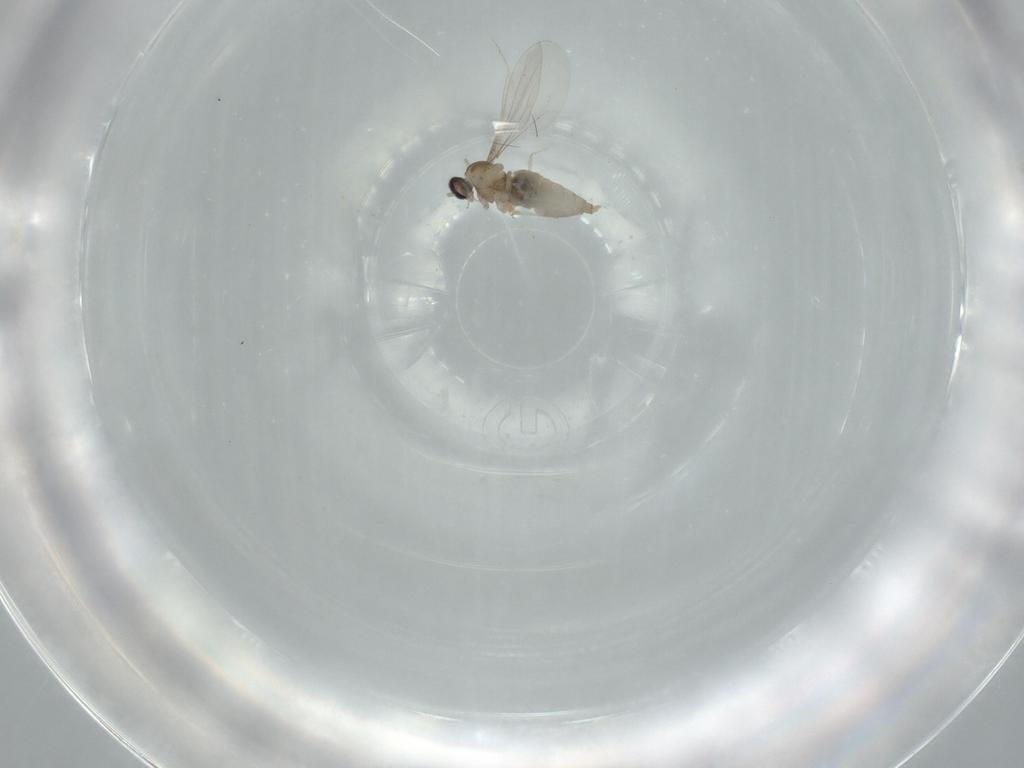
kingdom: Animalia
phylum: Arthropoda
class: Insecta
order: Diptera
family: Cecidomyiidae
